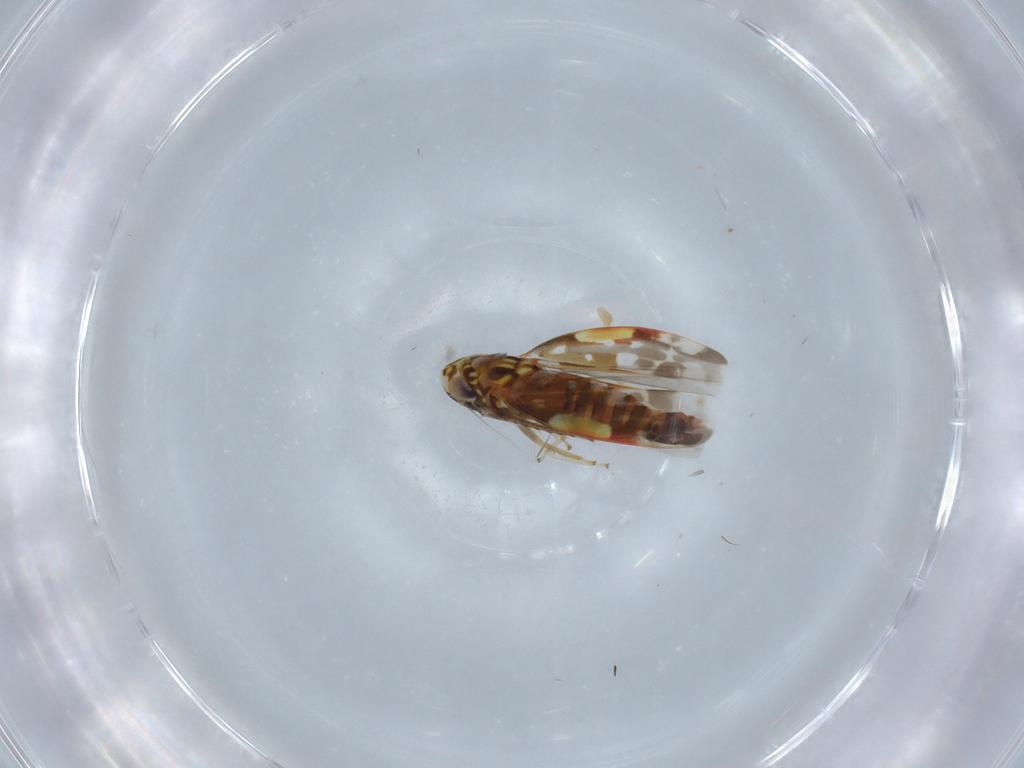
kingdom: Animalia
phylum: Arthropoda
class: Insecta
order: Hemiptera
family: Cicadellidae
